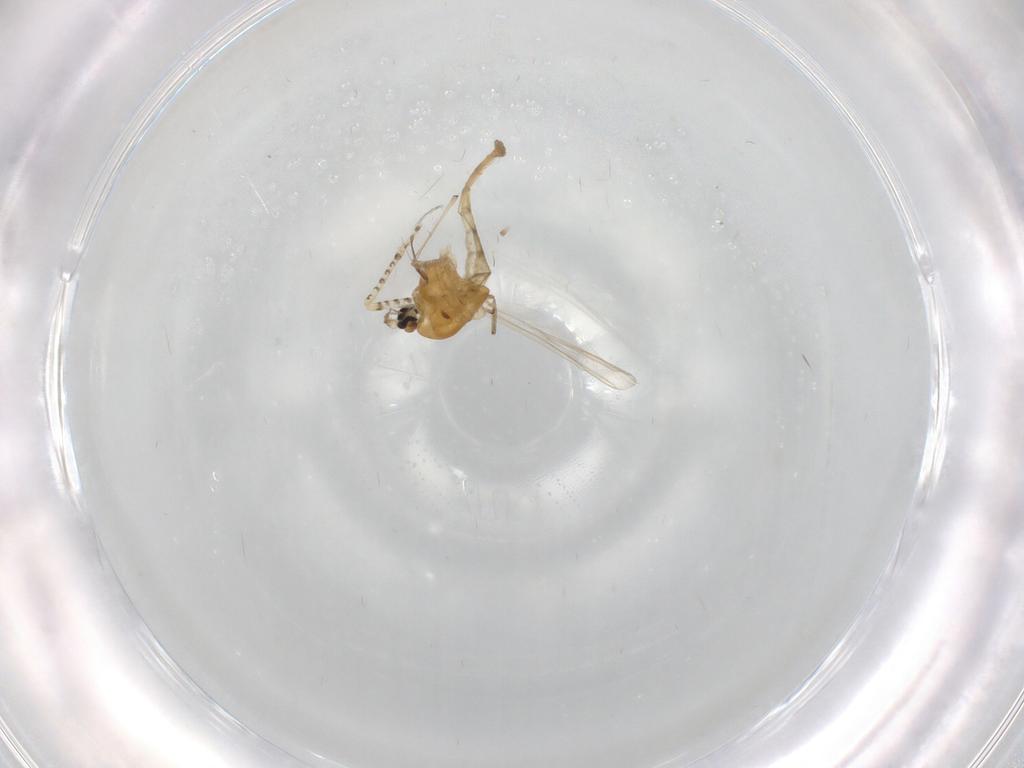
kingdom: Animalia
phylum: Arthropoda
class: Insecta
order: Diptera
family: Chironomidae
